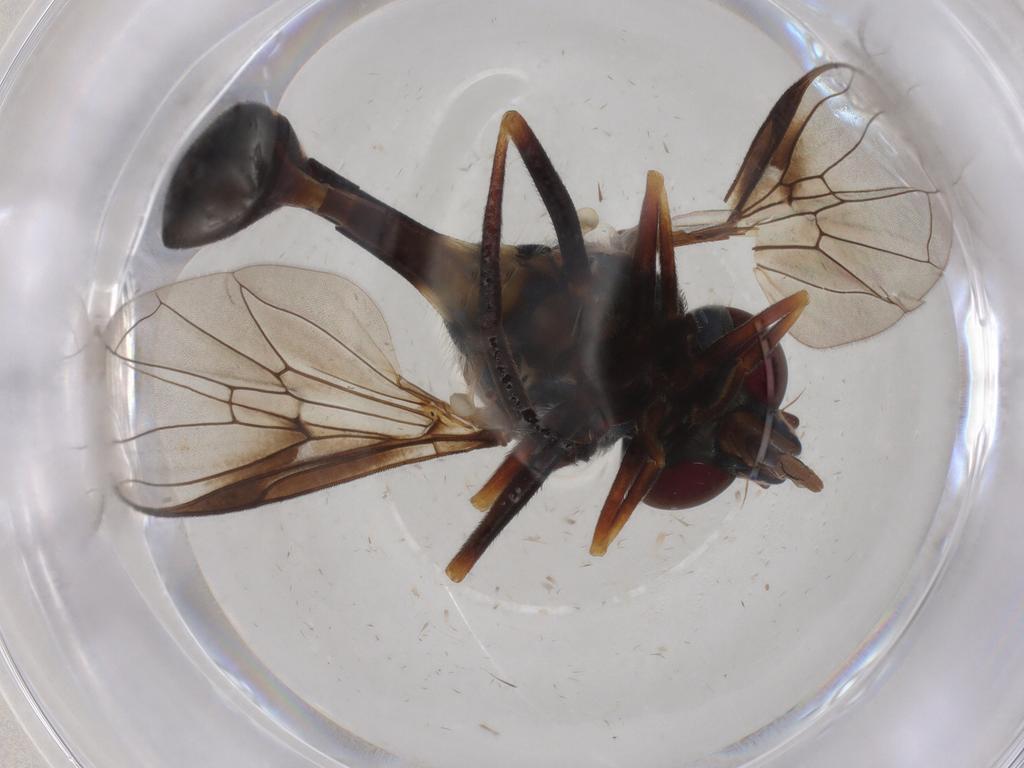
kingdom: Animalia
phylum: Arthropoda
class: Insecta
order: Diptera
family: Syrphidae
